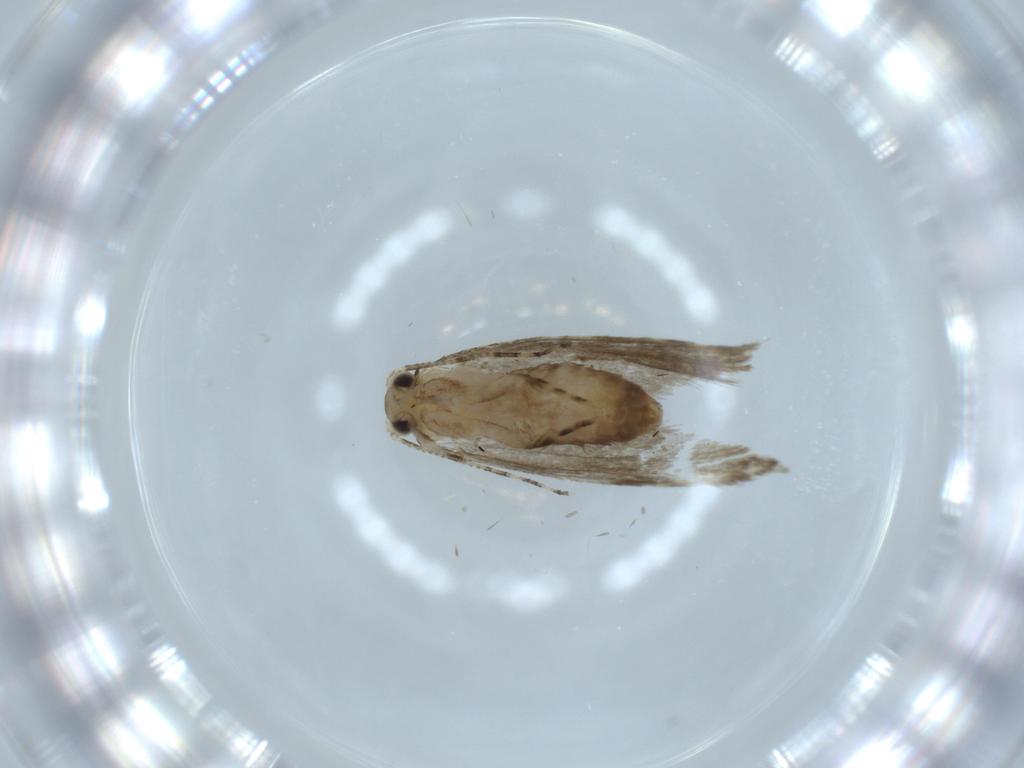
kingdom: Animalia
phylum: Arthropoda
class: Insecta
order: Lepidoptera
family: Tineidae
